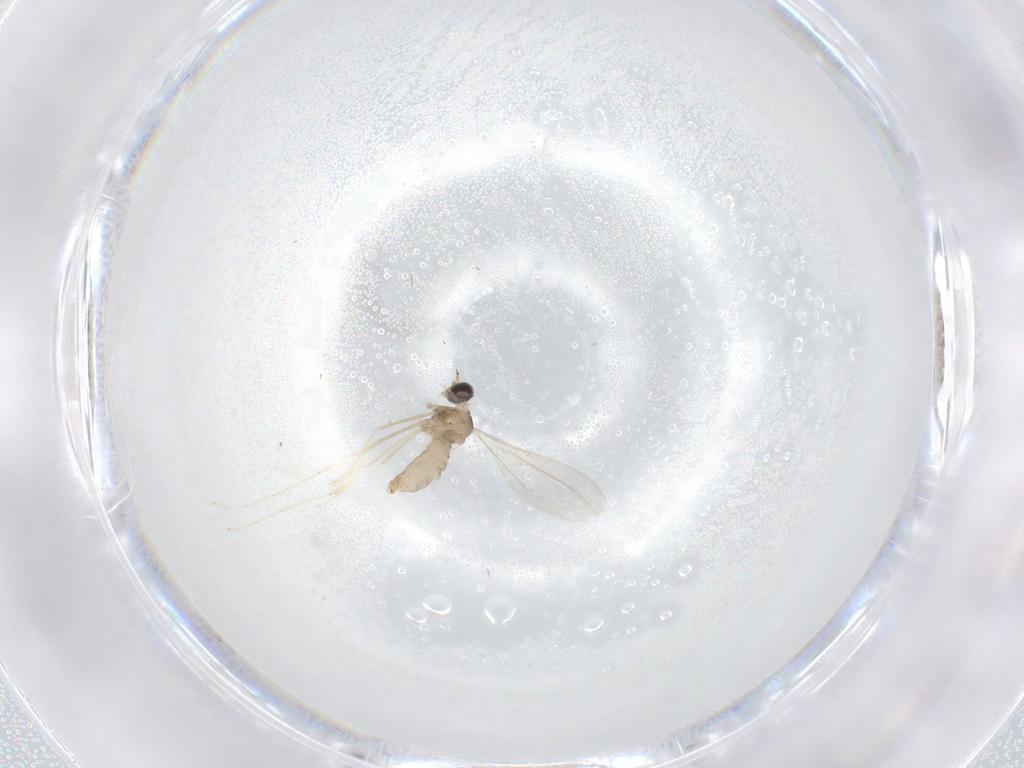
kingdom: Animalia
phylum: Arthropoda
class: Insecta
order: Diptera
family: Cecidomyiidae
